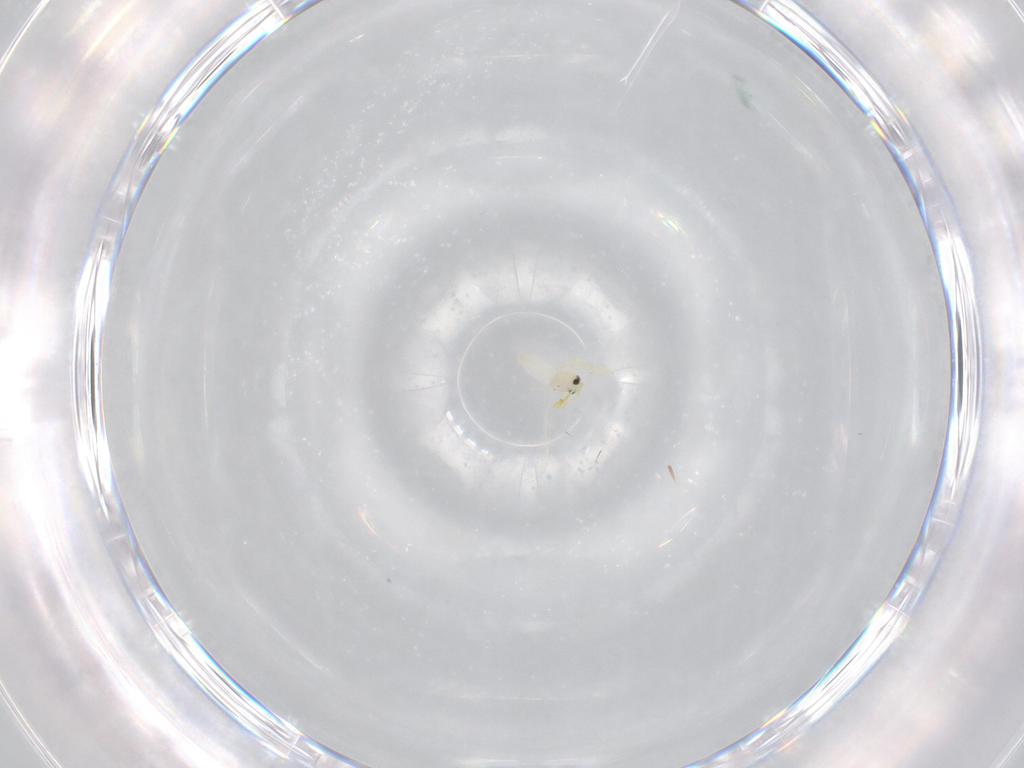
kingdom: Animalia
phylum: Arthropoda
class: Insecta
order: Hemiptera
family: Aleyrodidae
